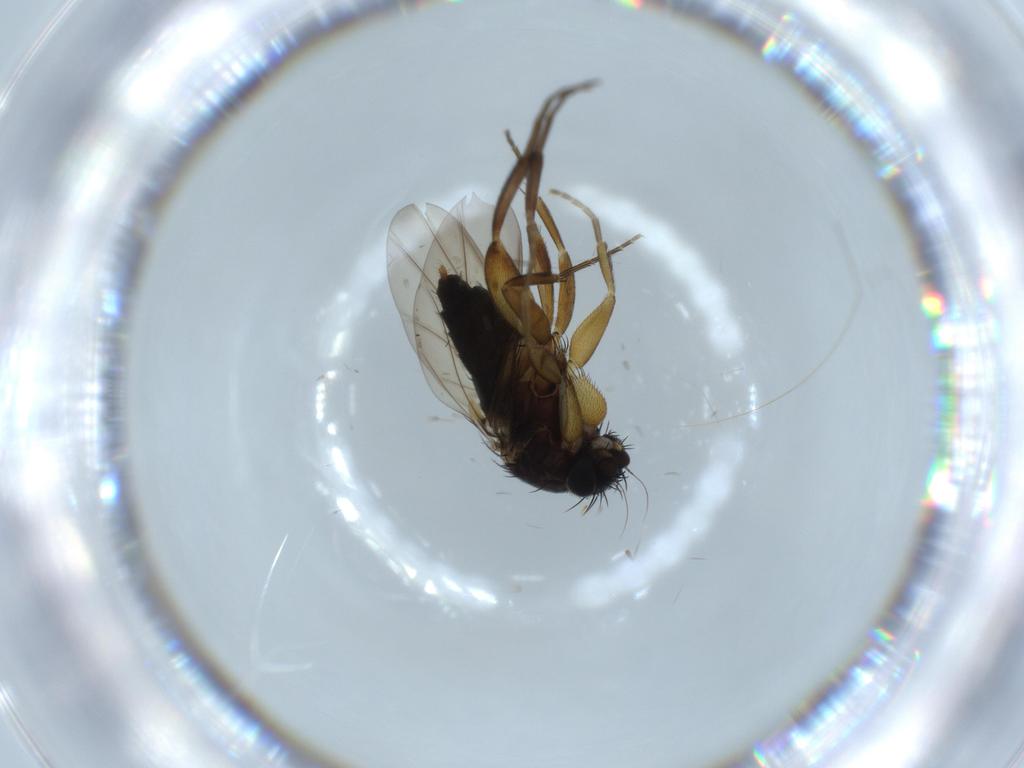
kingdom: Animalia
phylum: Arthropoda
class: Insecta
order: Diptera
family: Phoridae
